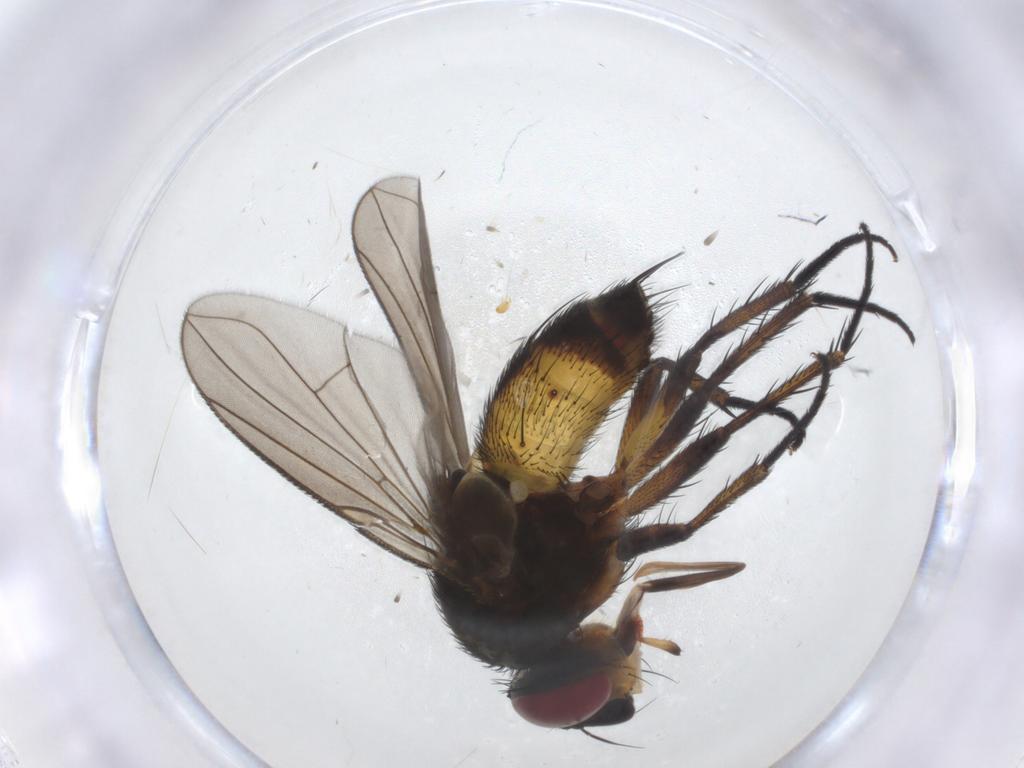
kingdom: Animalia
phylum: Arthropoda
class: Insecta
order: Diptera
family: Tachinidae
